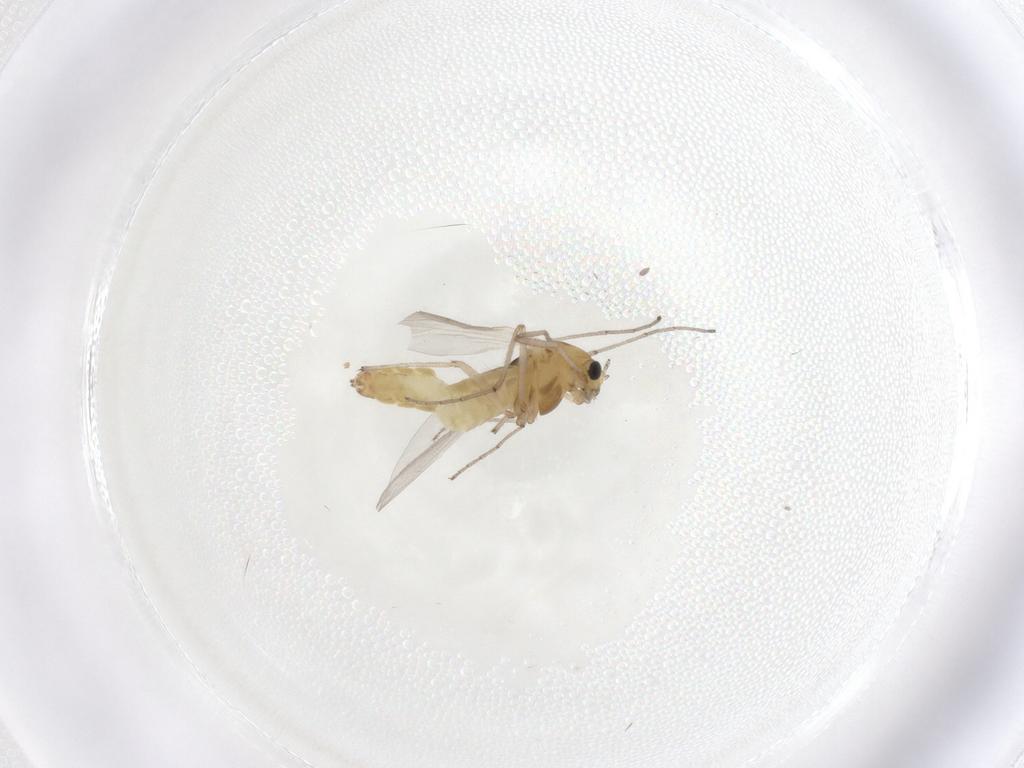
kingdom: Animalia
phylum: Arthropoda
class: Insecta
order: Diptera
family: Chironomidae
